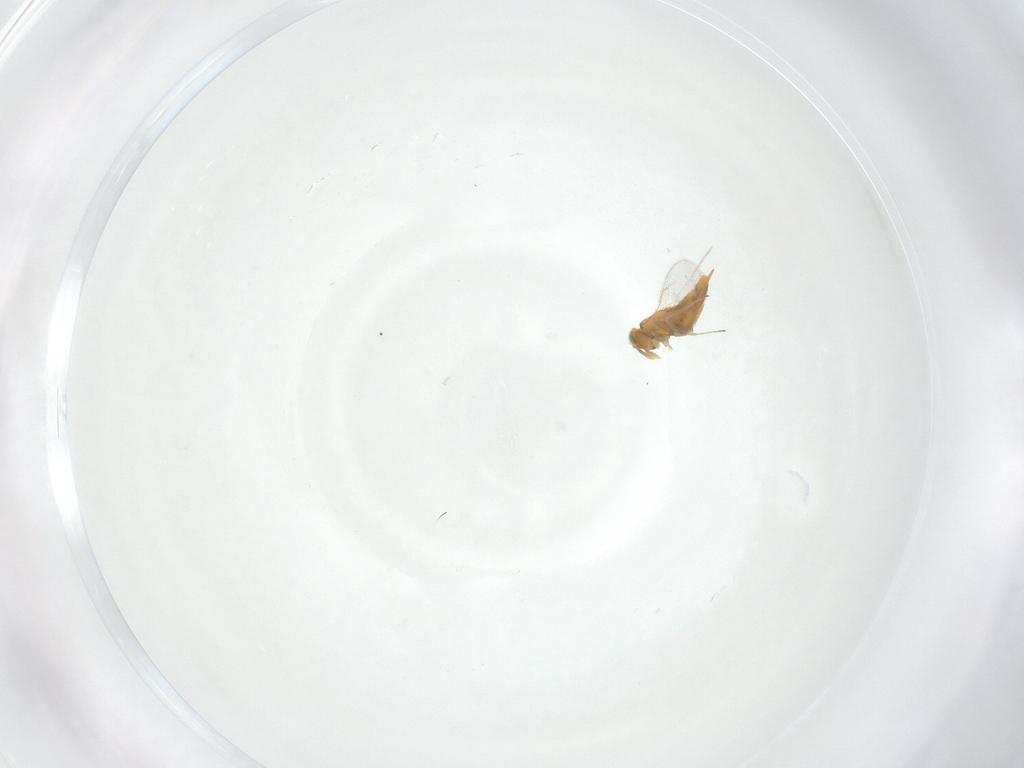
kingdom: Animalia
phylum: Arthropoda
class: Insecta
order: Hymenoptera
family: Aphelinidae
